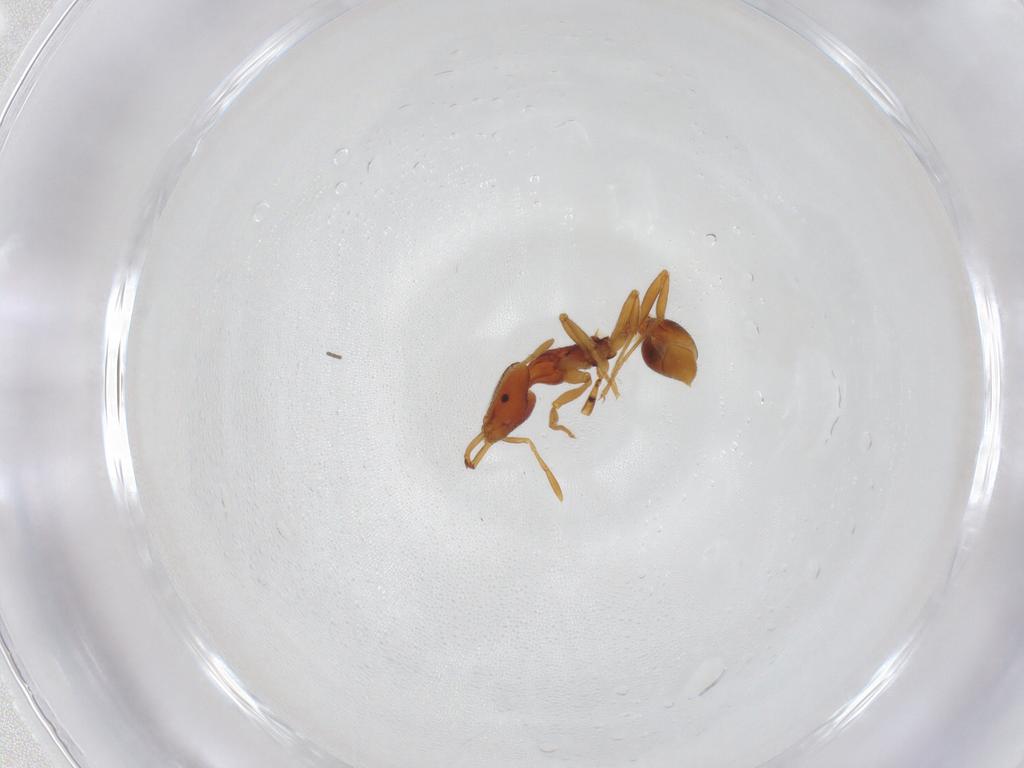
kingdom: Animalia
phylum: Arthropoda
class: Insecta
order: Hymenoptera
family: Formicidae
